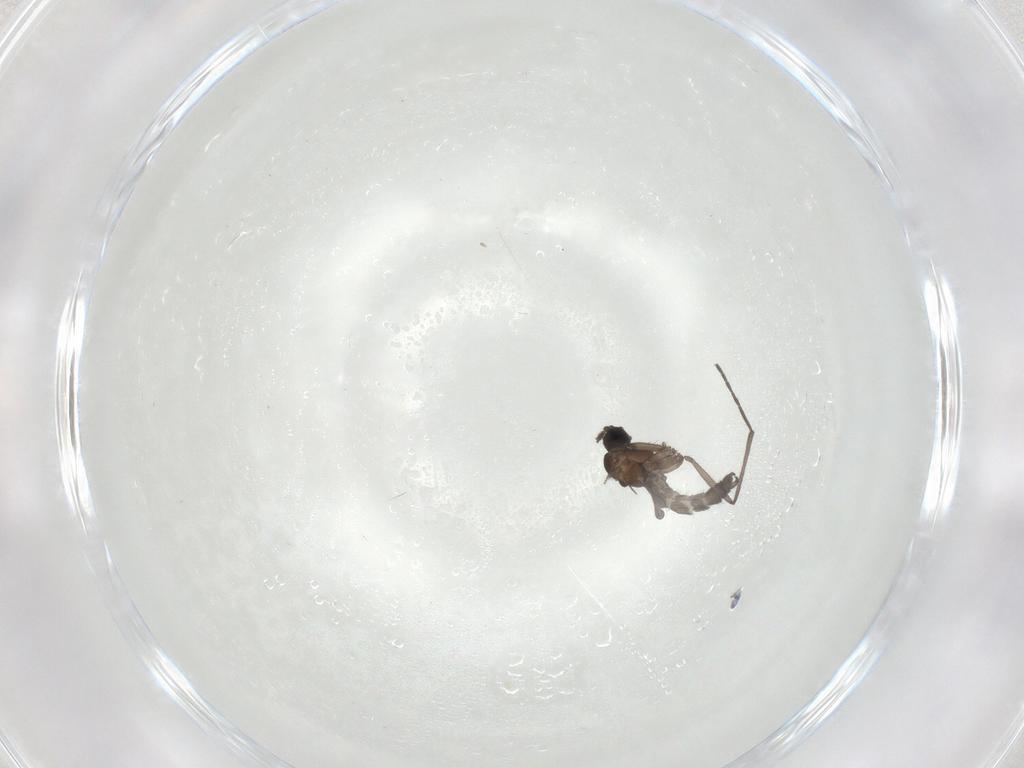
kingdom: Animalia
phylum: Arthropoda
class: Insecta
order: Diptera
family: Sciaridae
